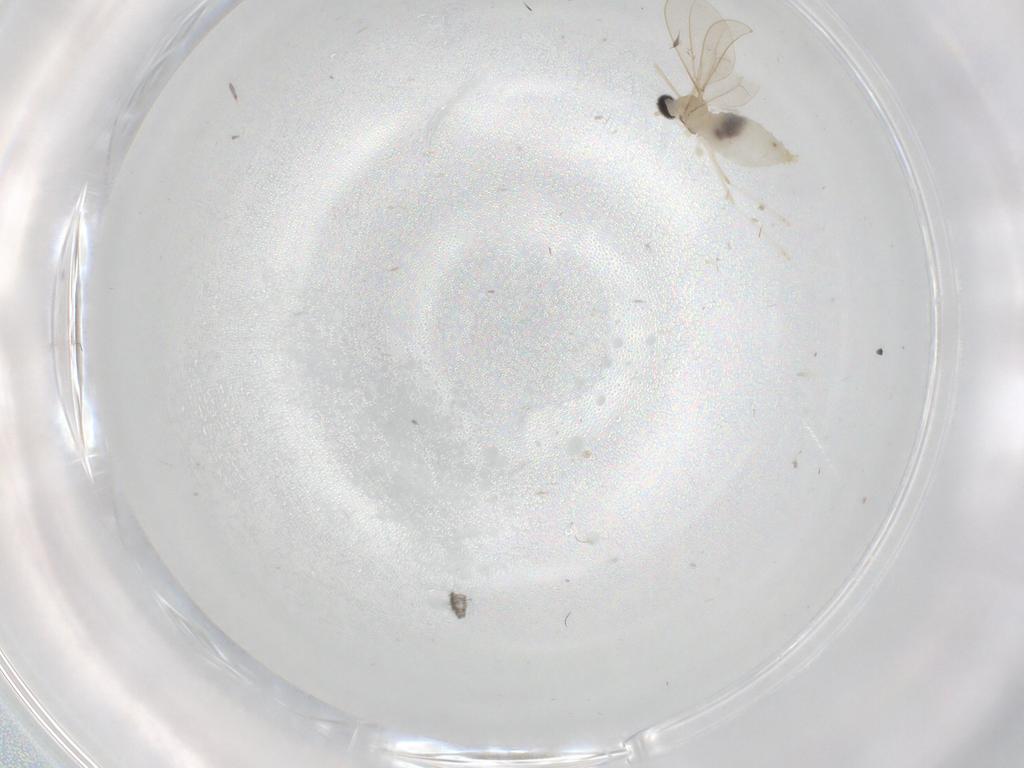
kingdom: Animalia
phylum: Arthropoda
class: Insecta
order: Diptera
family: Cecidomyiidae
